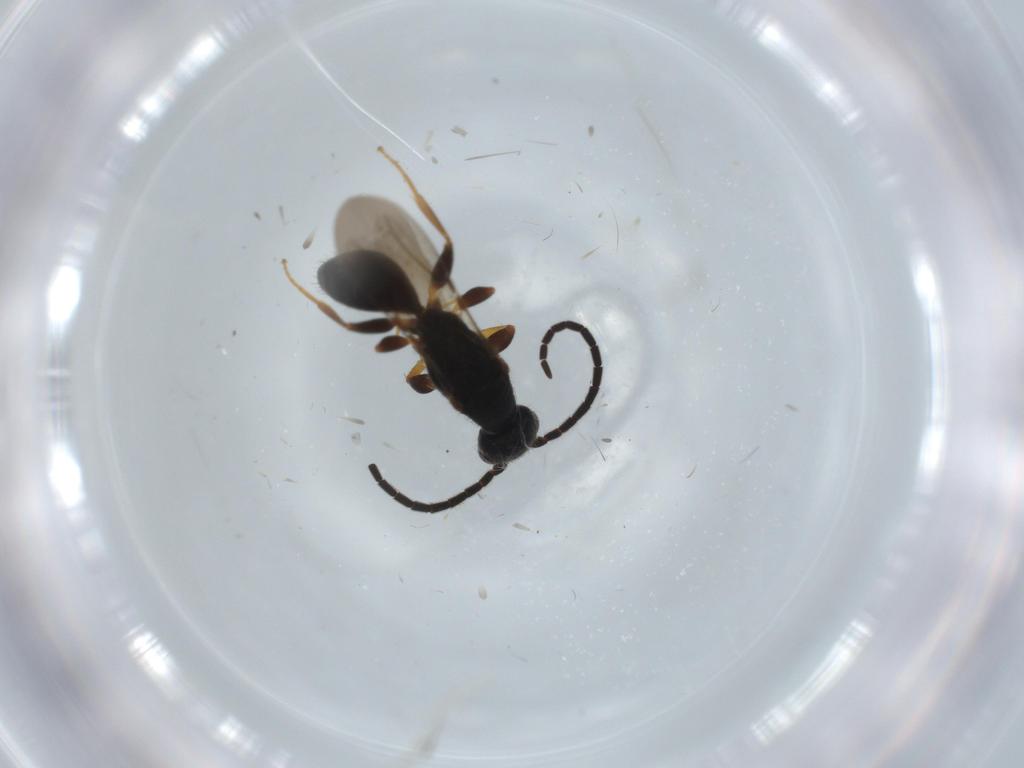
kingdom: Animalia
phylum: Arthropoda
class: Insecta
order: Hymenoptera
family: Bethylidae
